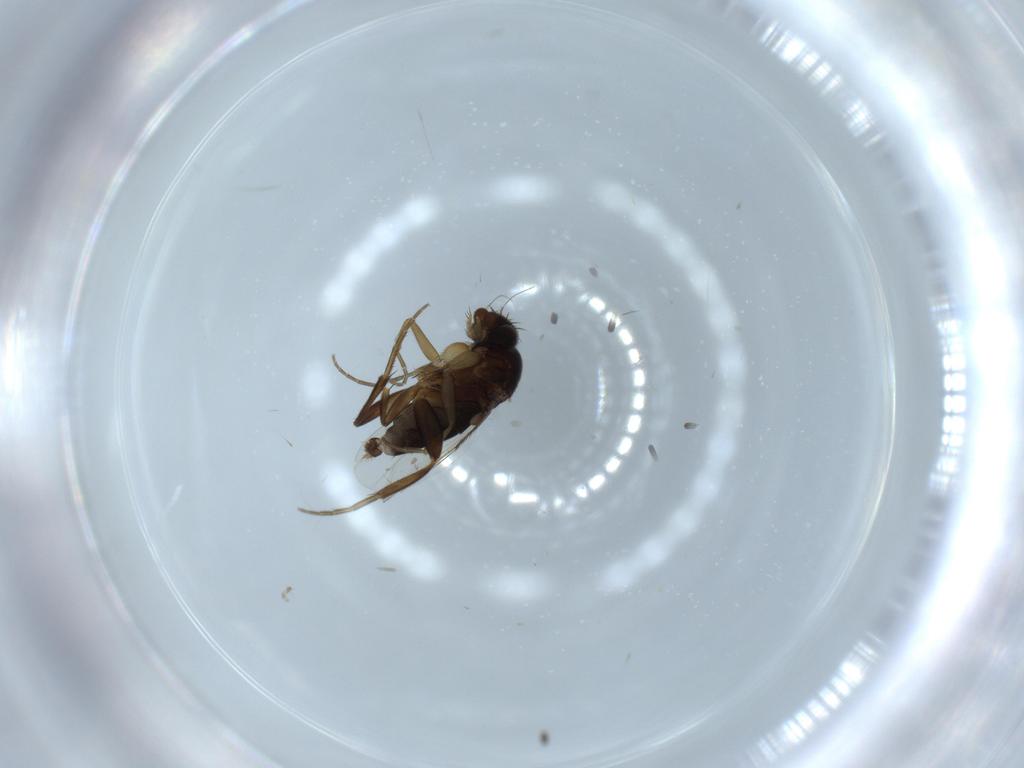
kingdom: Animalia
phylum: Arthropoda
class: Insecta
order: Diptera
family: Phoridae
